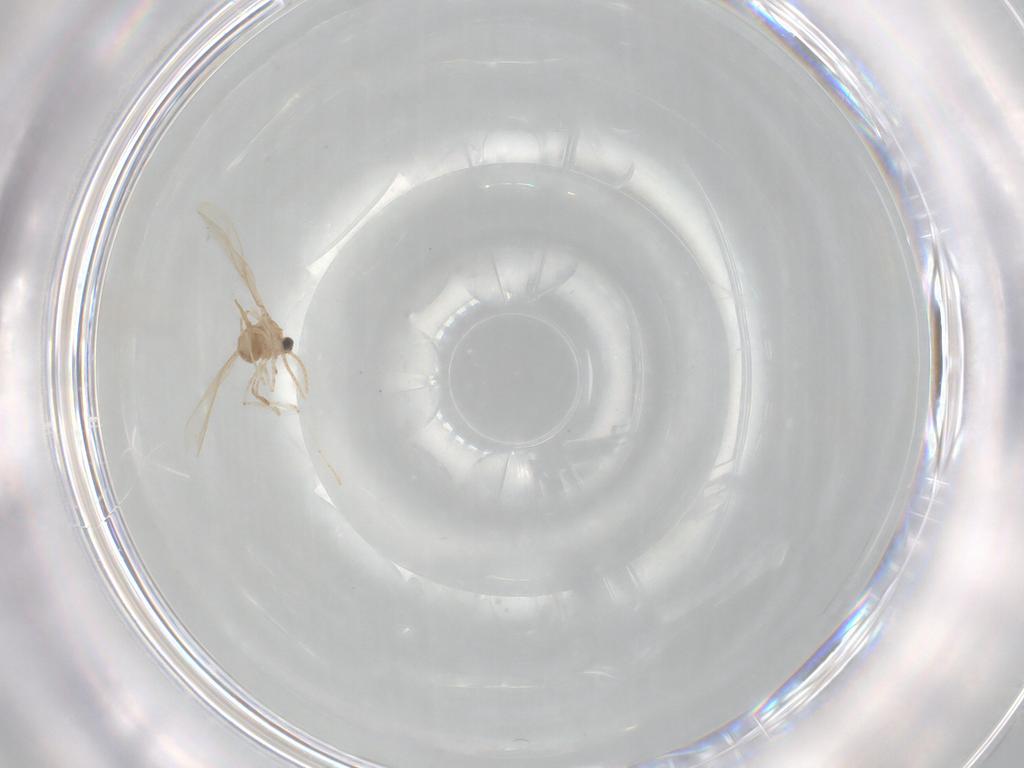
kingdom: Animalia
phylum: Arthropoda
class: Insecta
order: Diptera
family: Cecidomyiidae
